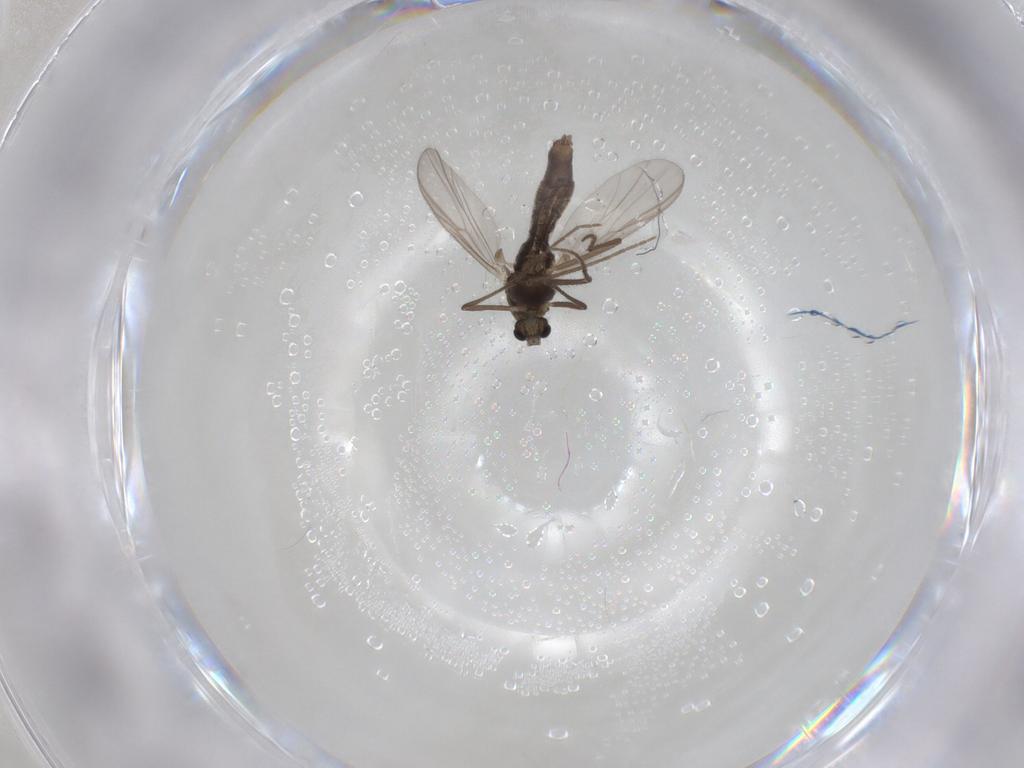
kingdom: Animalia
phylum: Arthropoda
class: Insecta
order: Diptera
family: Chironomidae
